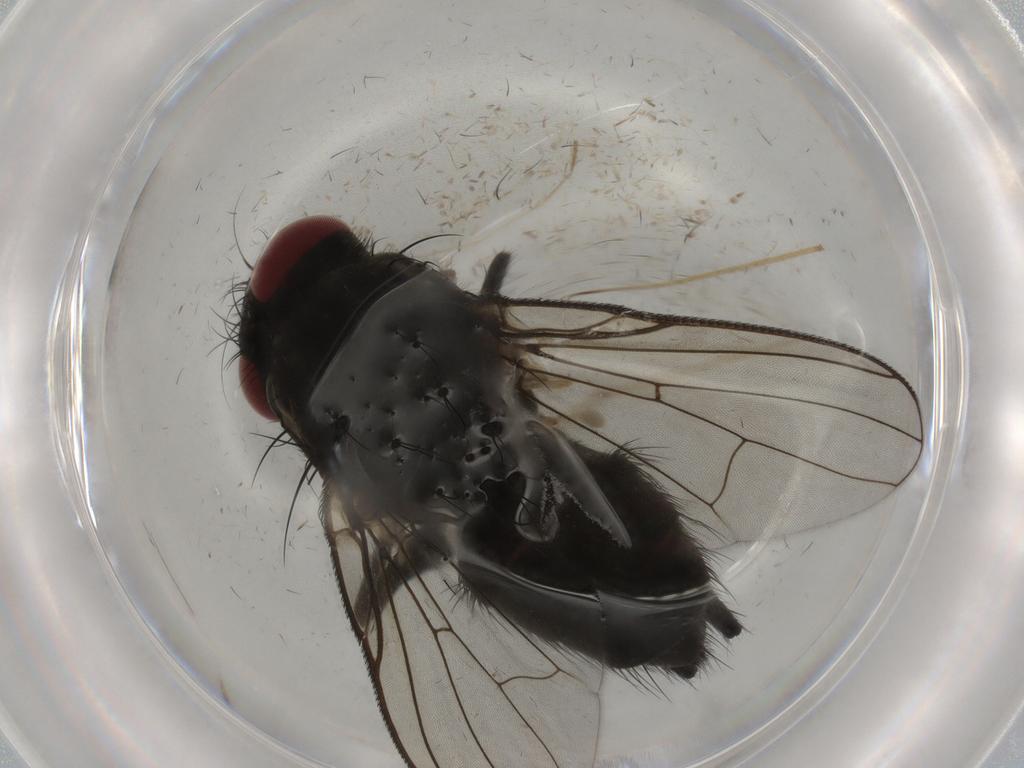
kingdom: Animalia
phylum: Arthropoda
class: Insecta
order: Diptera
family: Muscidae
